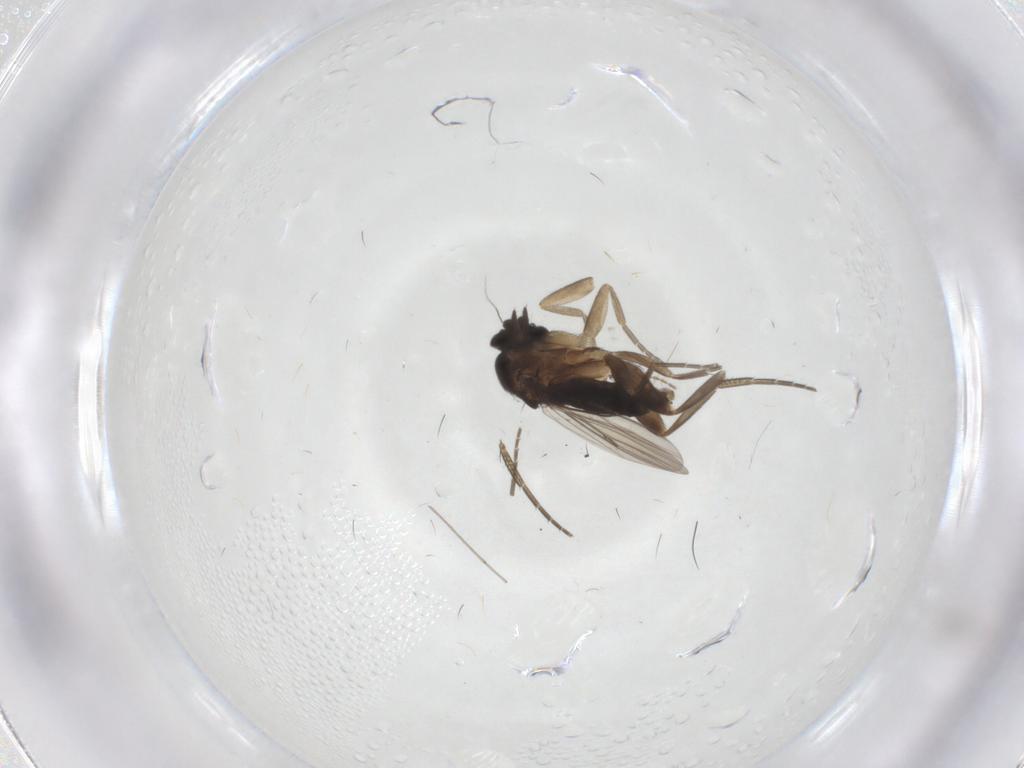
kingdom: Animalia
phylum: Arthropoda
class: Insecta
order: Diptera
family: Phoridae
